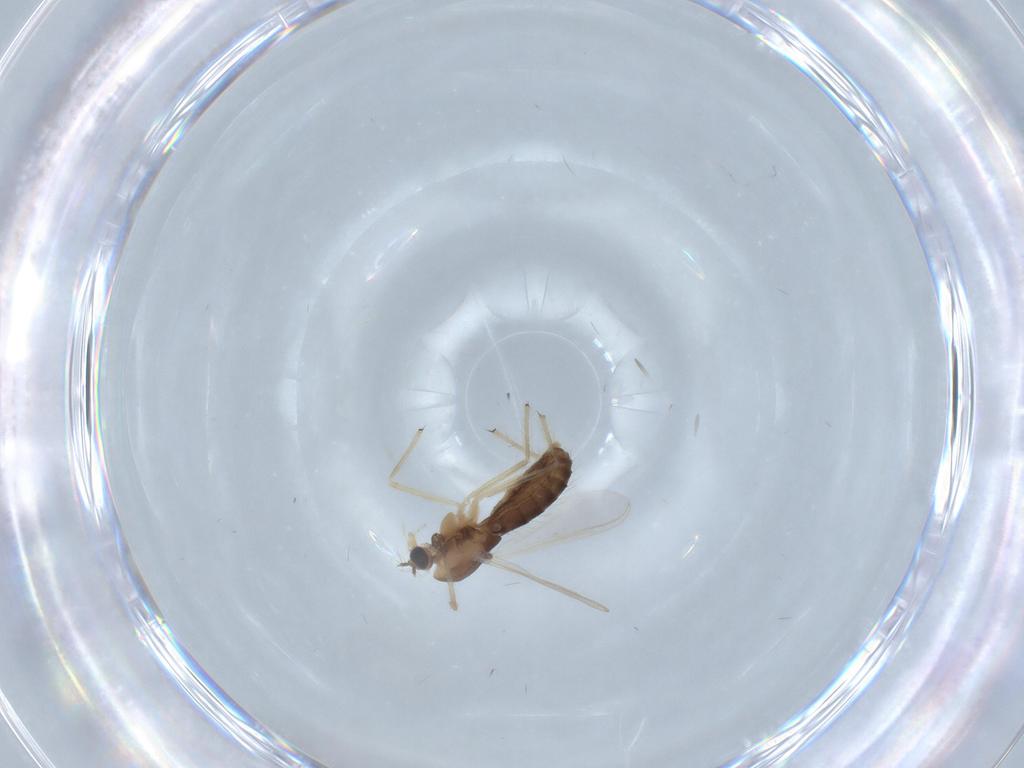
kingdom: Animalia
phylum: Arthropoda
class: Insecta
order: Diptera
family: Chironomidae
